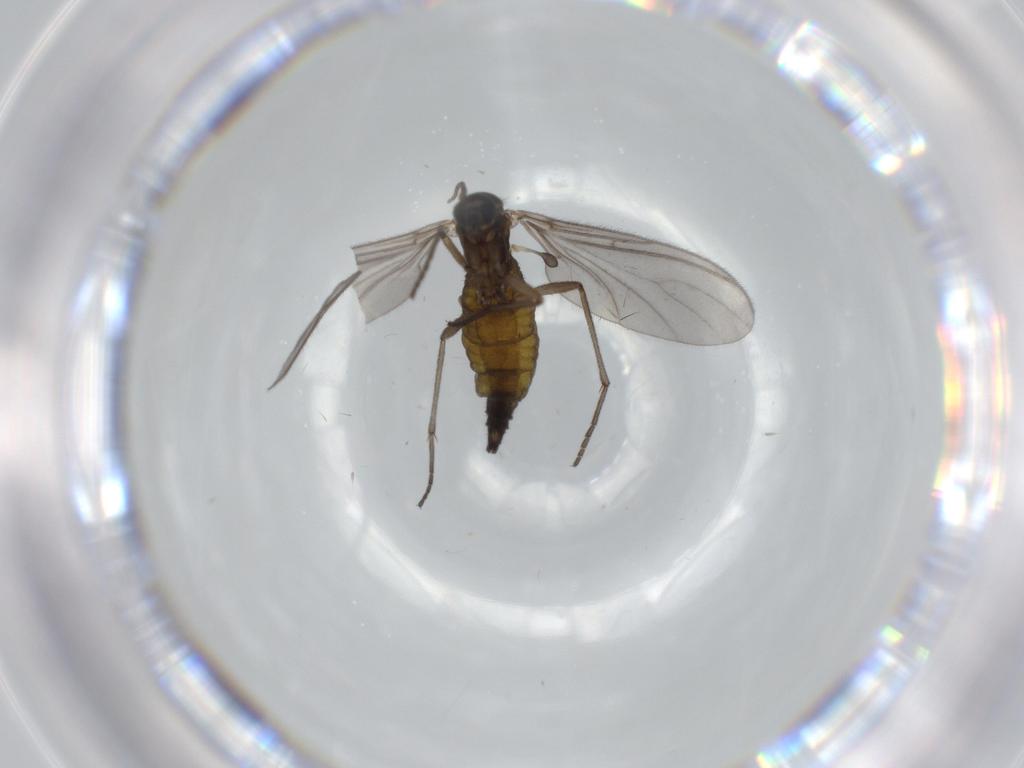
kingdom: Animalia
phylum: Arthropoda
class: Insecta
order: Diptera
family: Sciaridae
